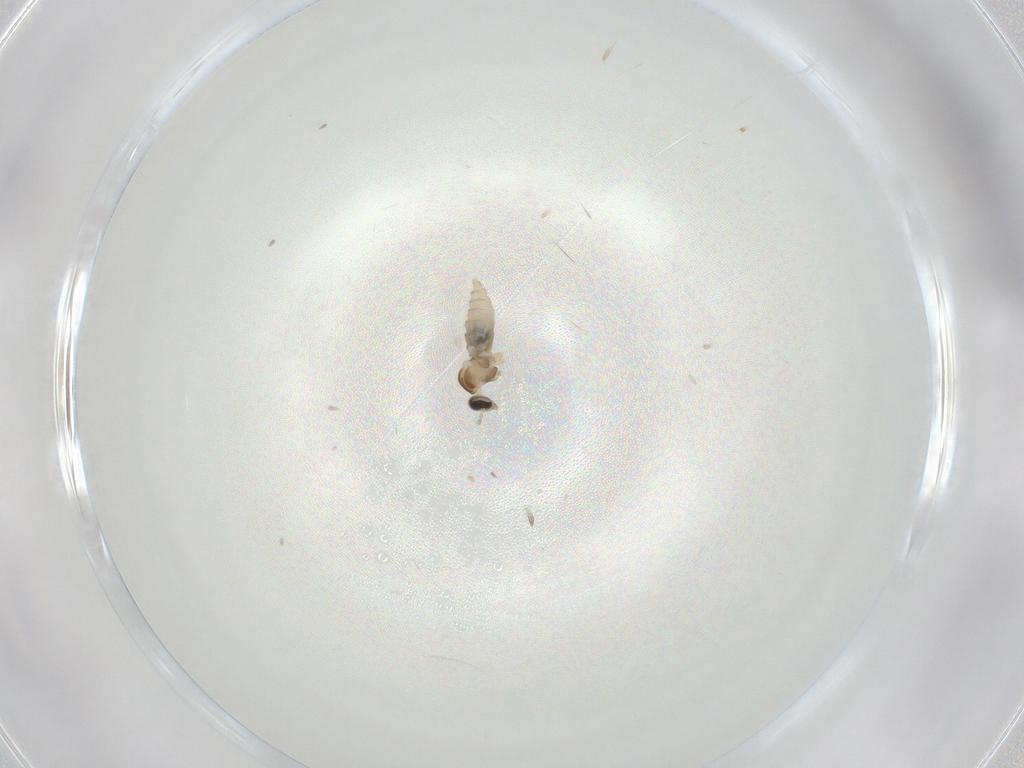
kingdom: Animalia
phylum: Arthropoda
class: Insecta
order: Diptera
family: Cecidomyiidae
